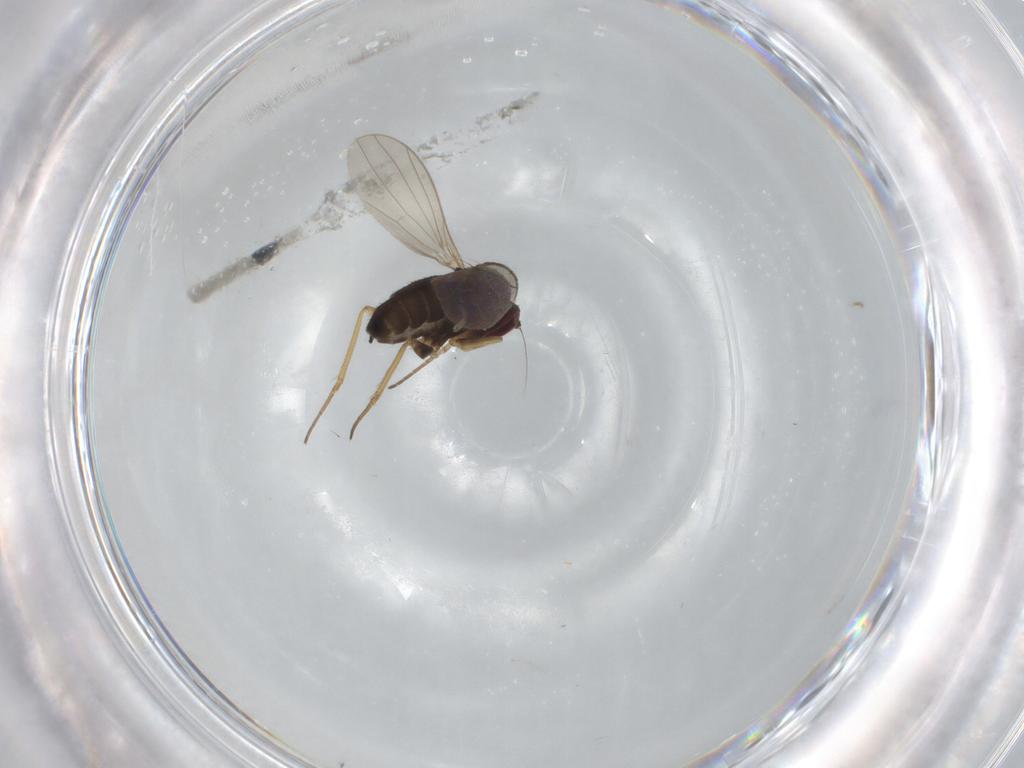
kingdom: Animalia
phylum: Arthropoda
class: Insecta
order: Diptera
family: Dolichopodidae
